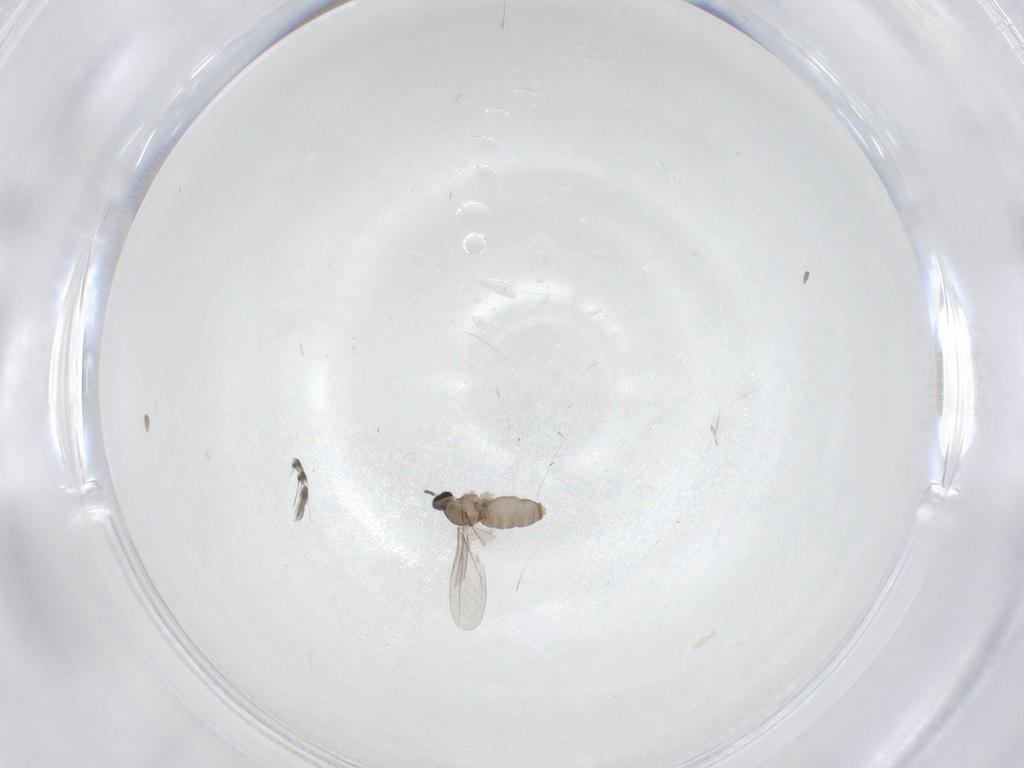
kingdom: Animalia
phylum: Arthropoda
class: Insecta
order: Diptera
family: Cecidomyiidae
